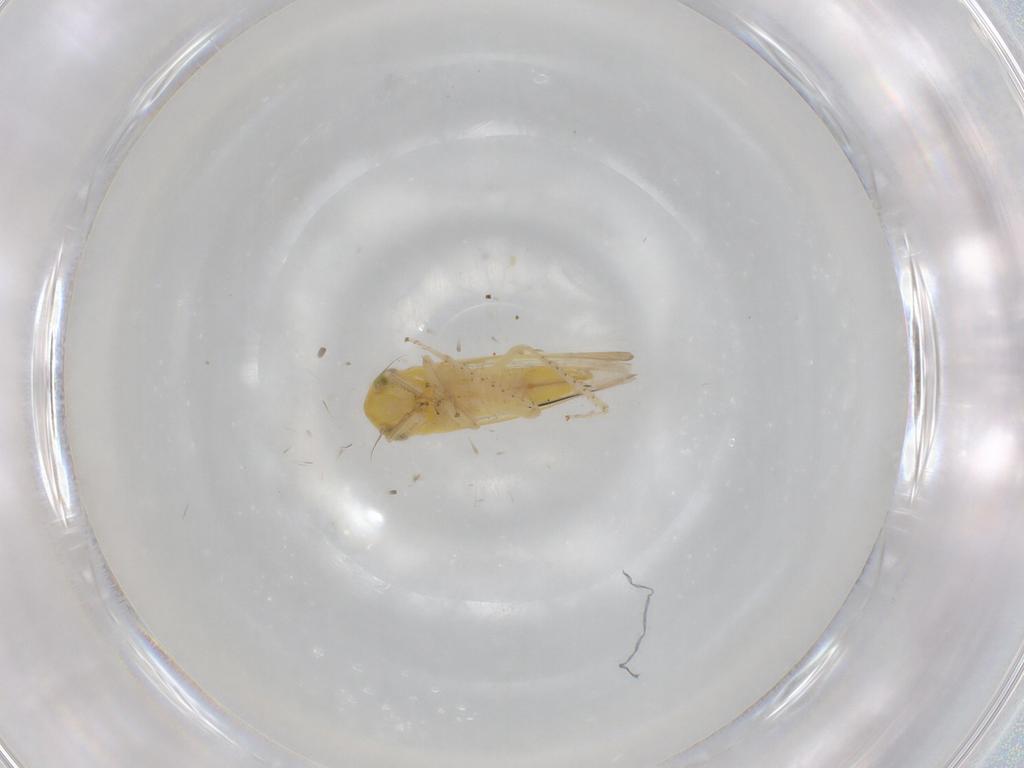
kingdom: Animalia
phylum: Arthropoda
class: Insecta
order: Hemiptera
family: Cicadellidae
